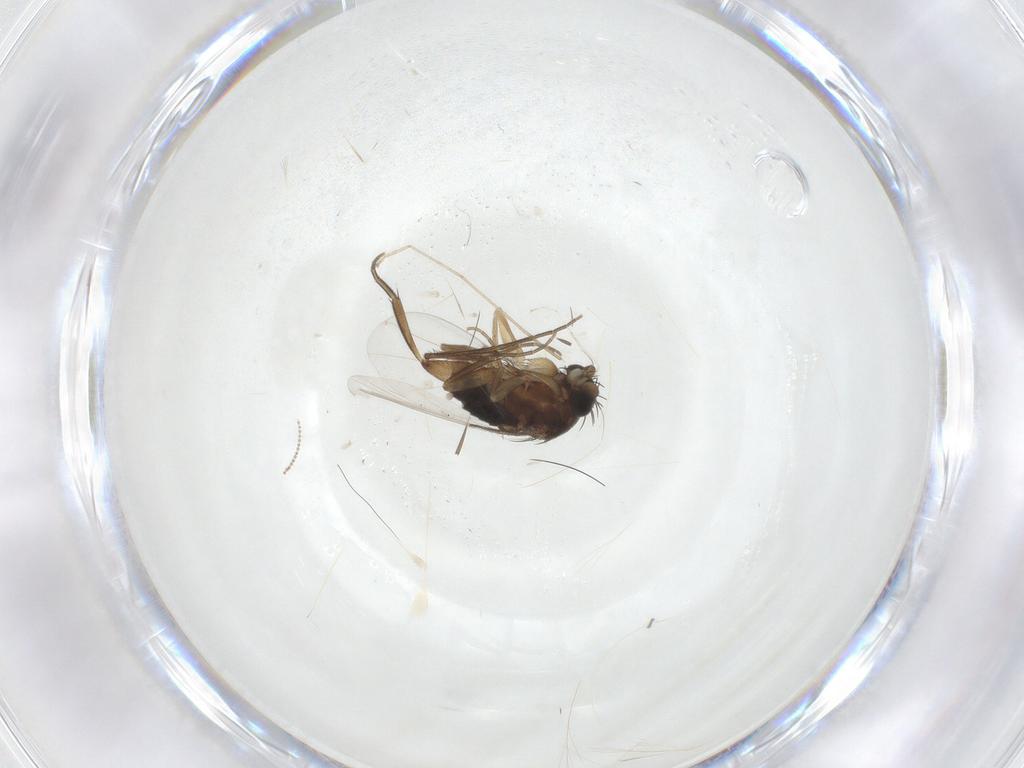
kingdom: Animalia
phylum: Arthropoda
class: Insecta
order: Diptera
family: Phoridae
